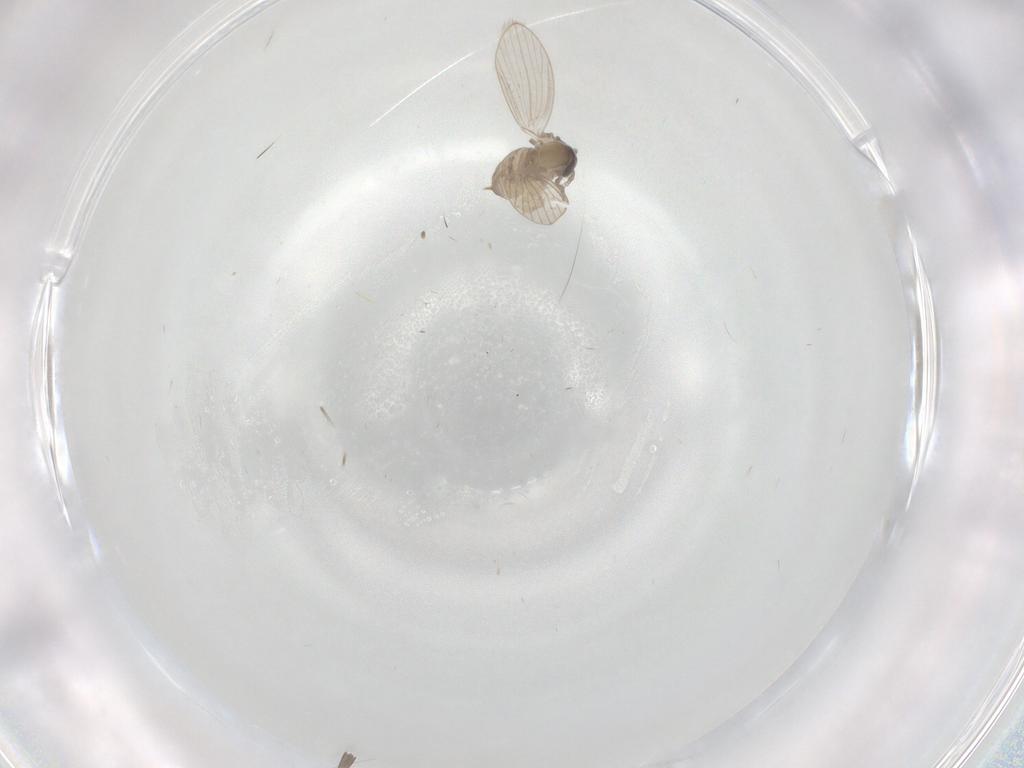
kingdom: Animalia
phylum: Arthropoda
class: Insecta
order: Diptera
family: Psychodidae
